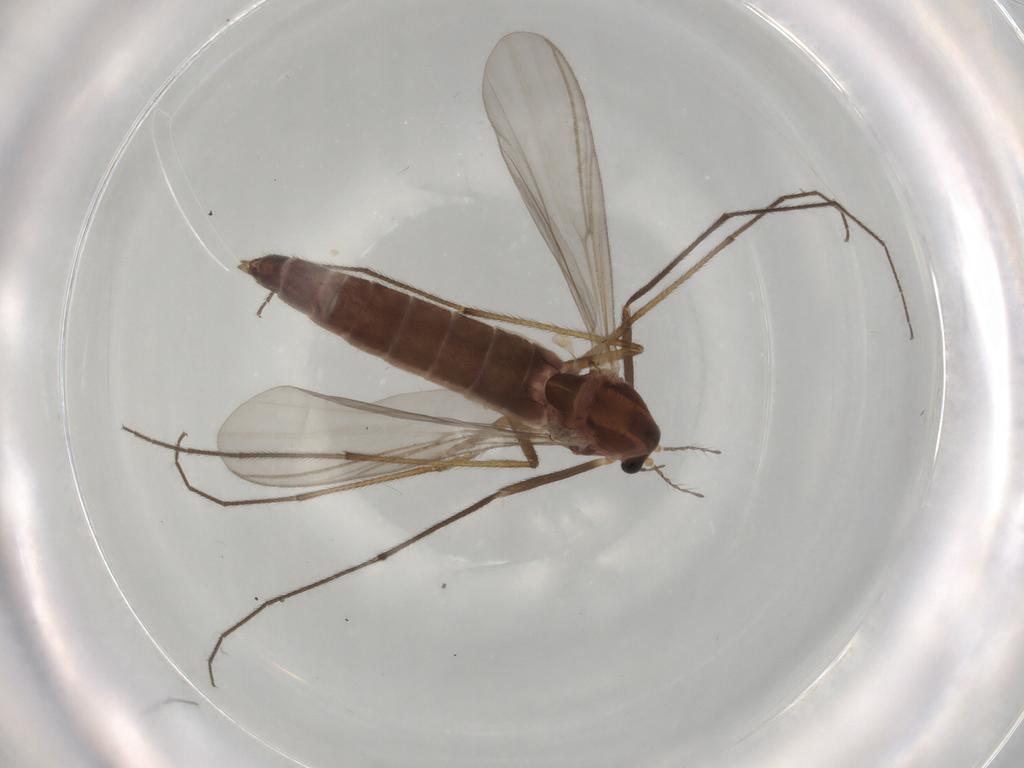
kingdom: Animalia
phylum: Arthropoda
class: Insecta
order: Diptera
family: Chironomidae
